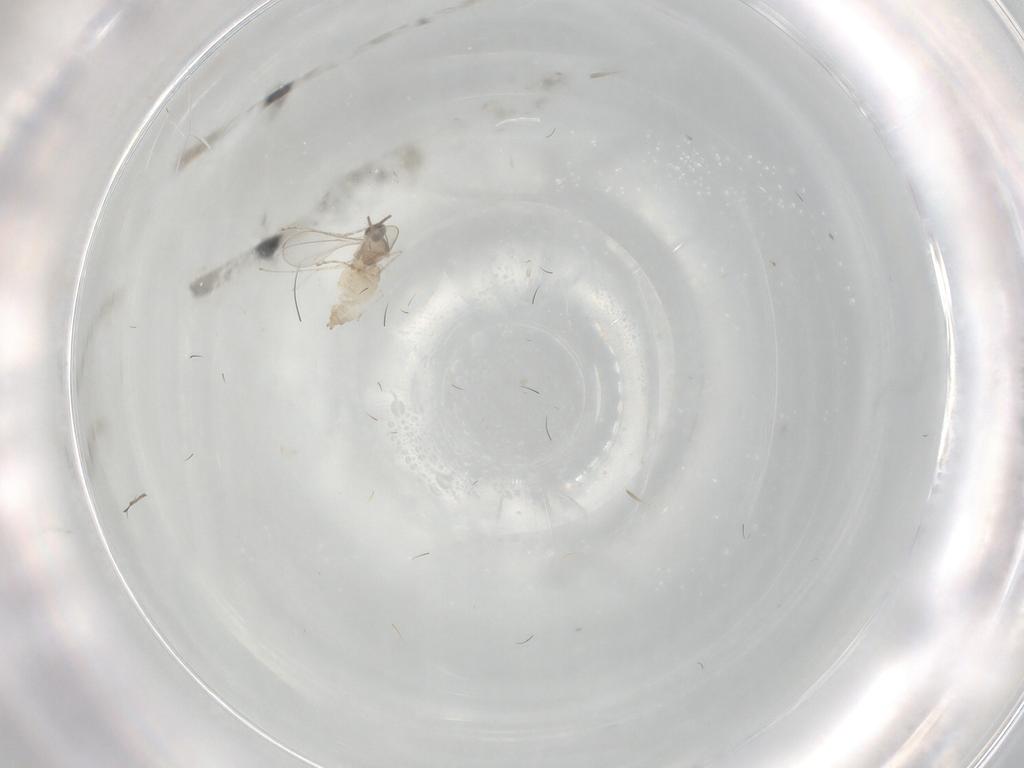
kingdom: Animalia
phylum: Arthropoda
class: Insecta
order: Diptera
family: Cecidomyiidae
